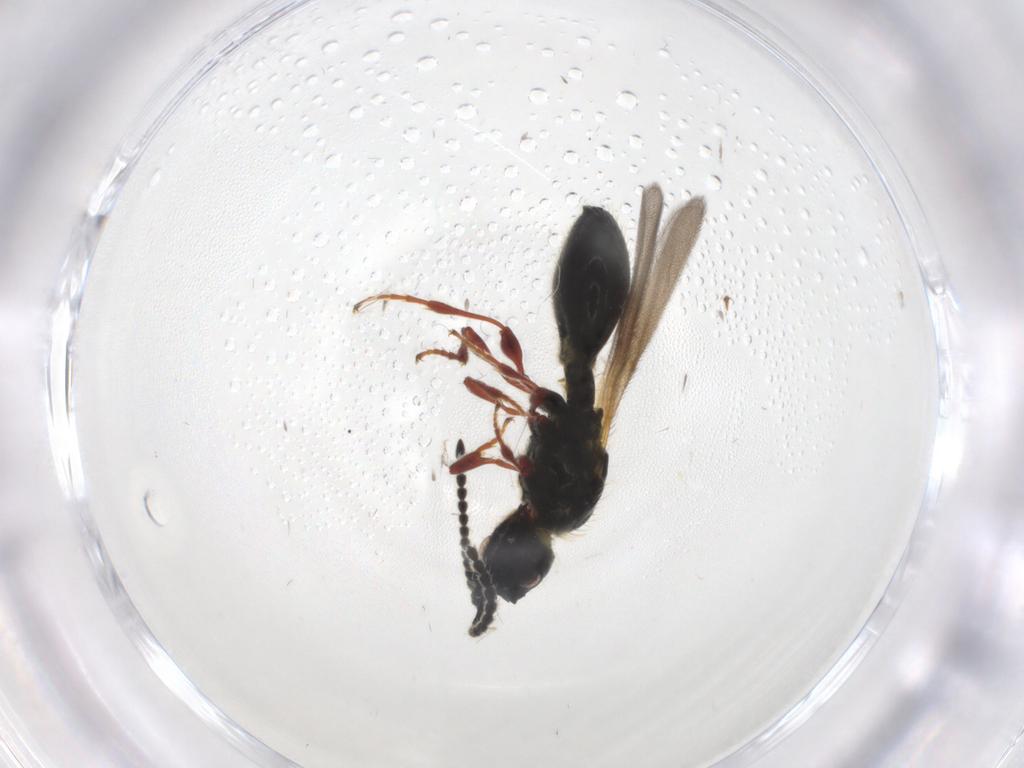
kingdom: Animalia
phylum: Arthropoda
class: Insecta
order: Hymenoptera
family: Diapriidae
